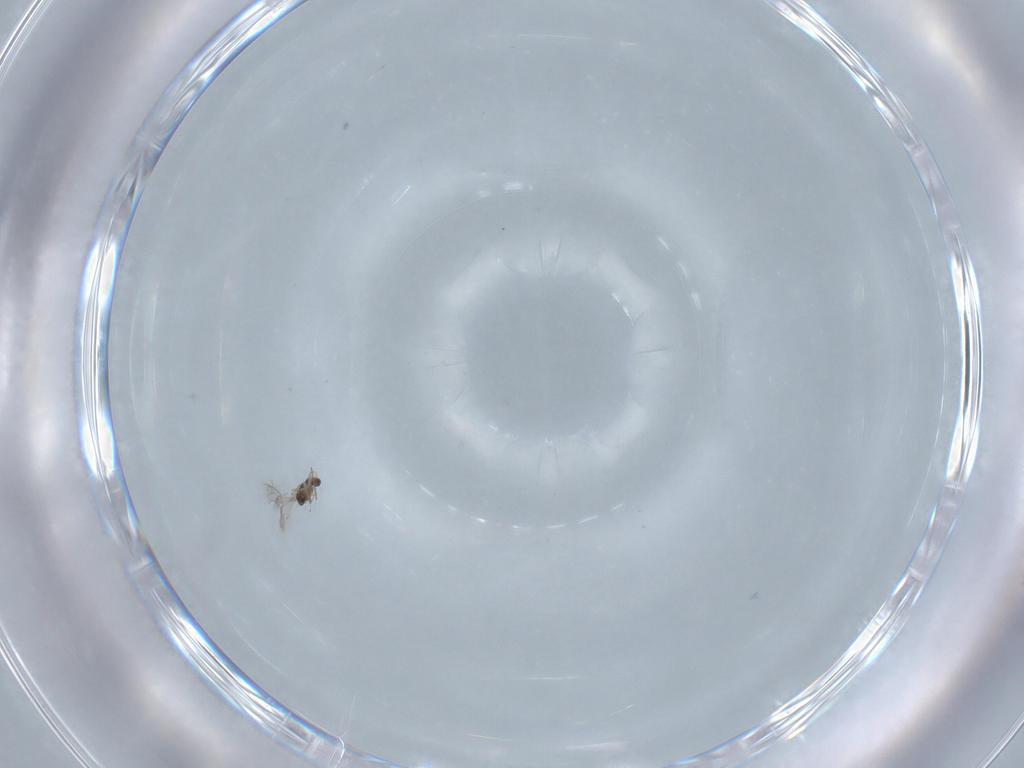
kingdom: Animalia
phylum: Arthropoda
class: Insecta
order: Hymenoptera
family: Mymaridae
